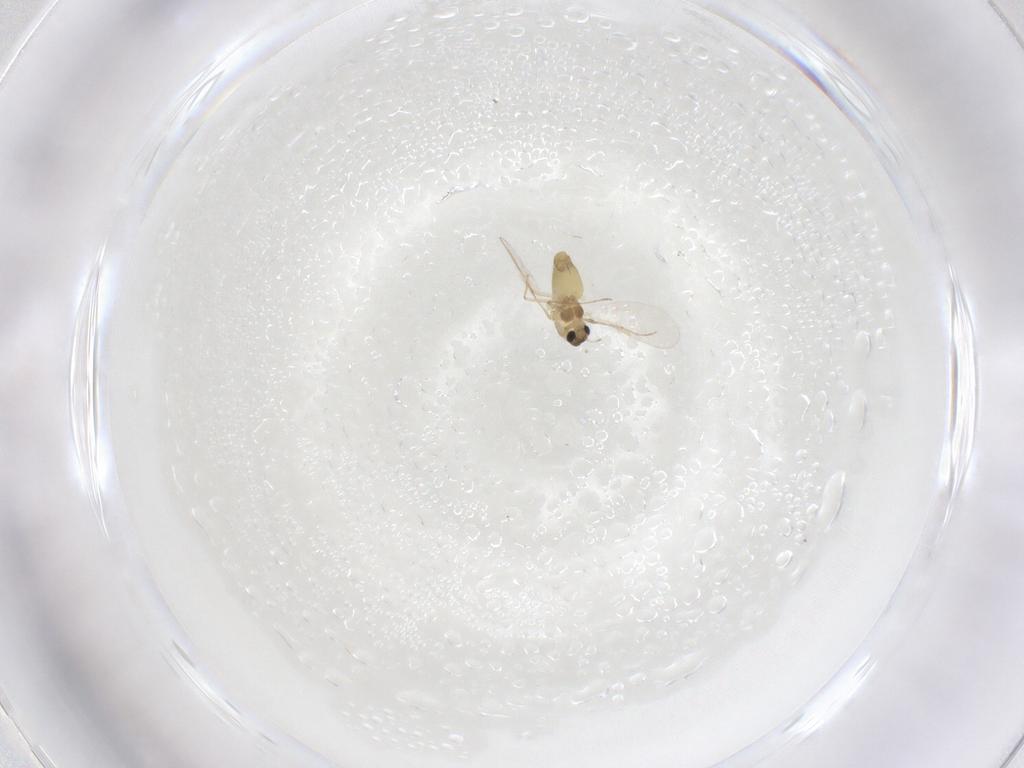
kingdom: Animalia
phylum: Arthropoda
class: Insecta
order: Diptera
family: Chironomidae
